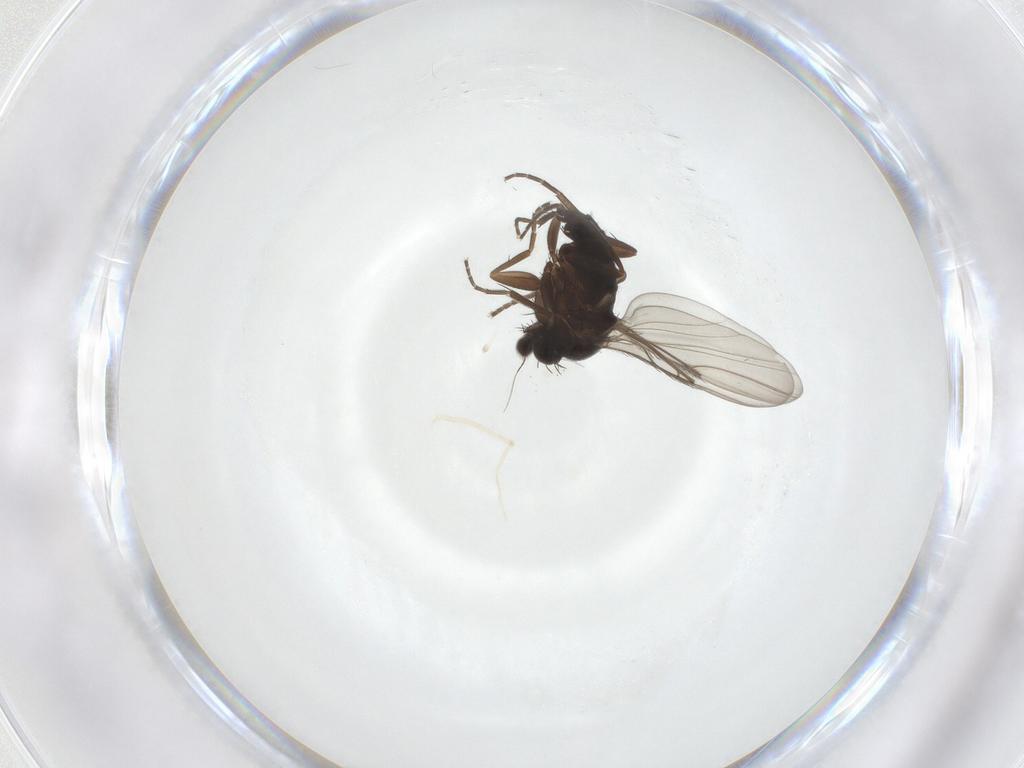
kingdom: Animalia
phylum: Arthropoda
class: Insecta
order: Diptera
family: Phoridae
